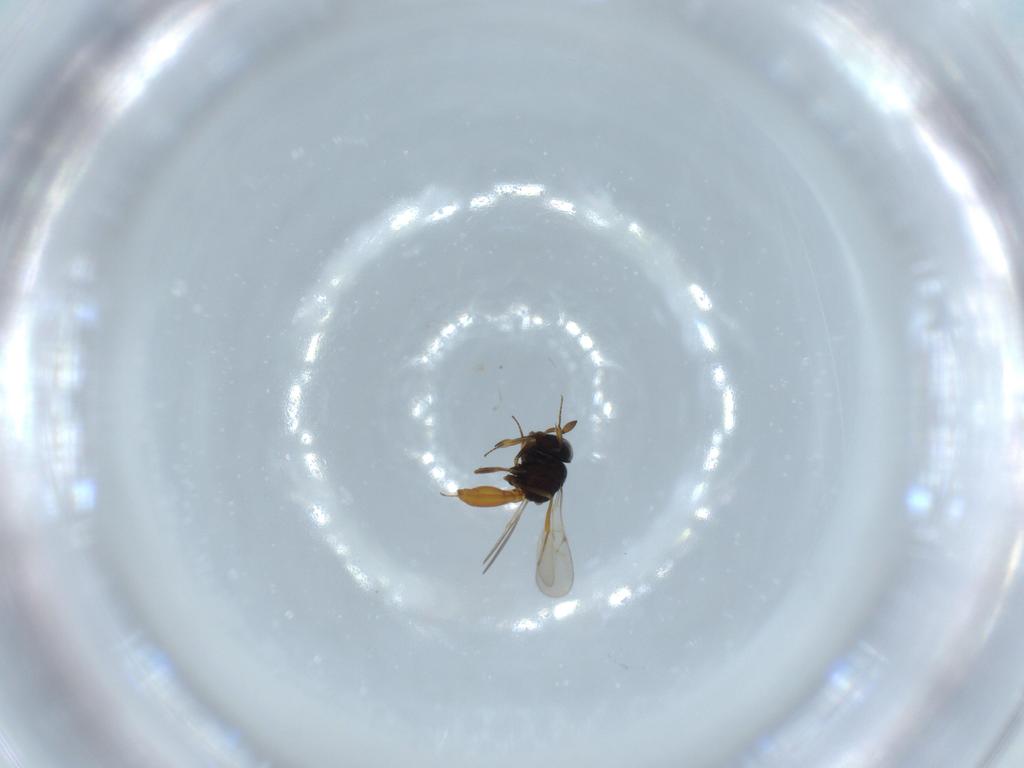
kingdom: Animalia
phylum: Arthropoda
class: Insecta
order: Hymenoptera
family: Scelionidae
